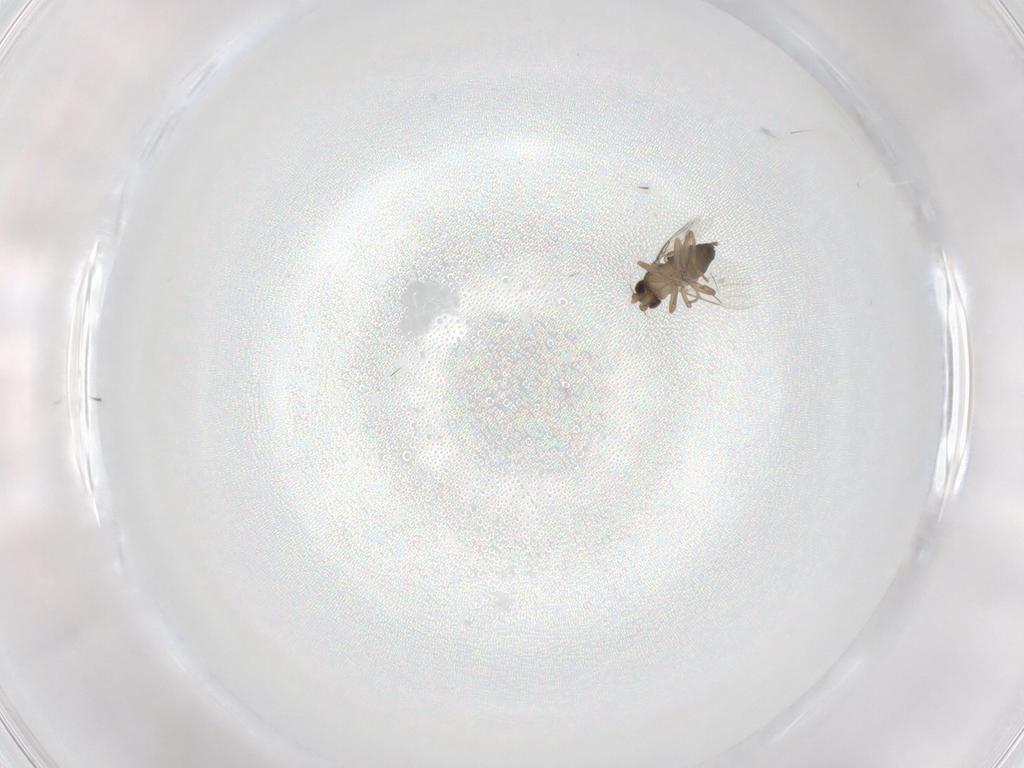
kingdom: Animalia
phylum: Arthropoda
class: Insecta
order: Diptera
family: Phoridae
